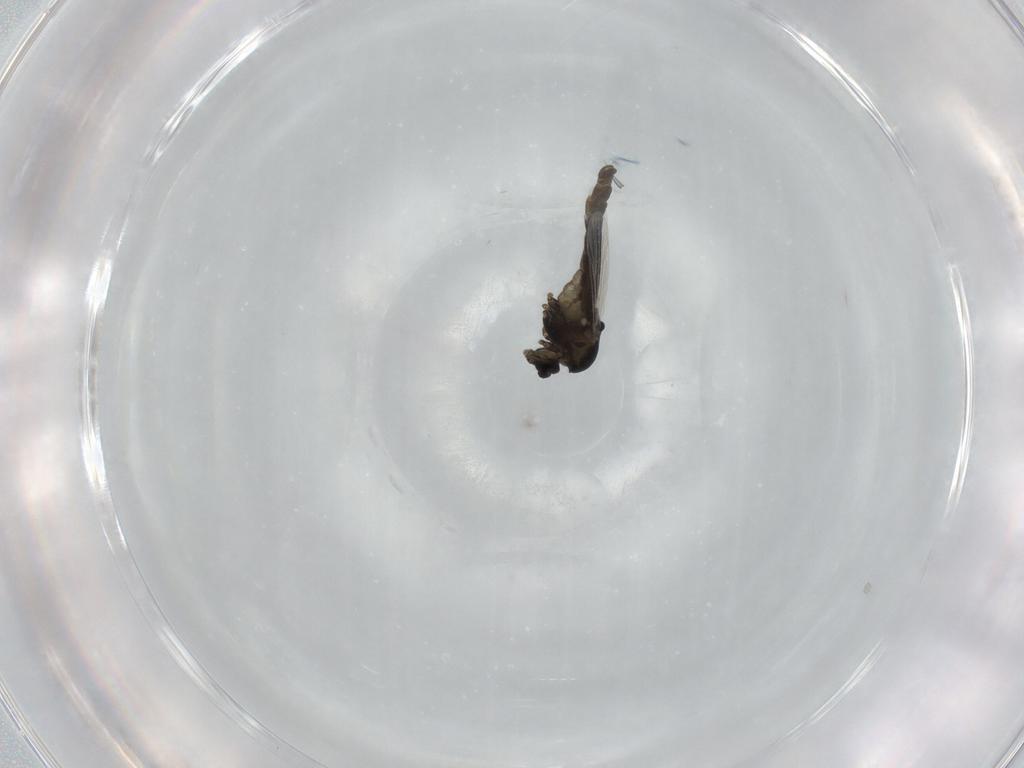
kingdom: Animalia
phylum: Arthropoda
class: Insecta
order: Diptera
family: Chironomidae
